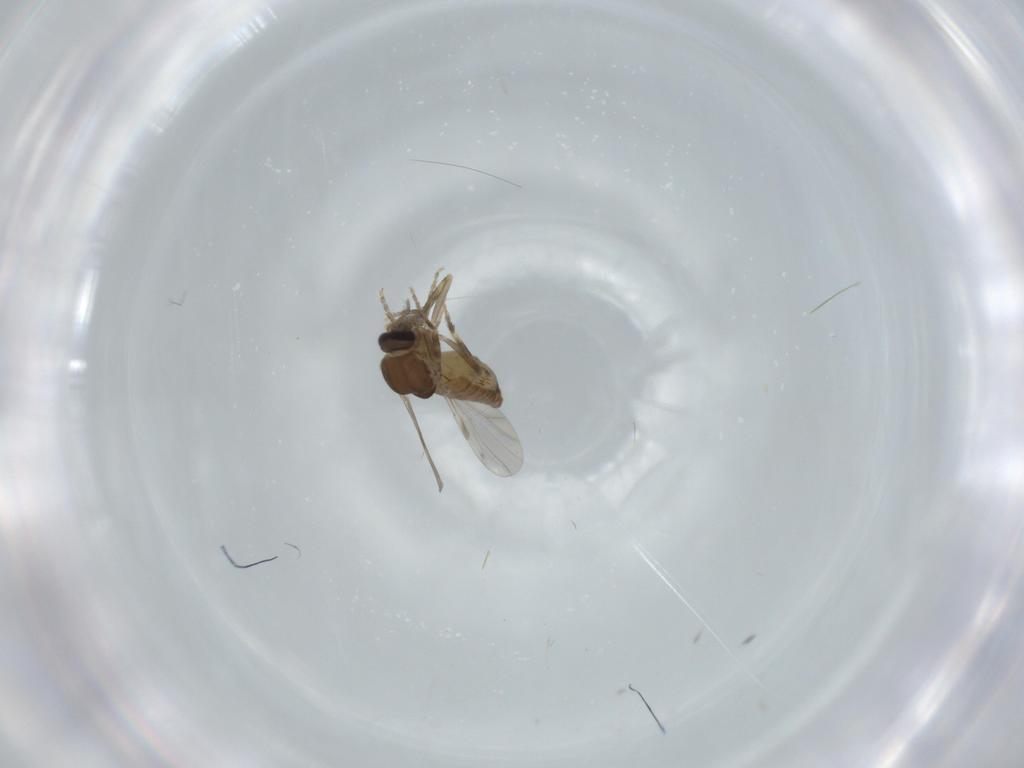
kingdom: Animalia
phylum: Arthropoda
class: Insecta
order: Diptera
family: Ceratopogonidae
